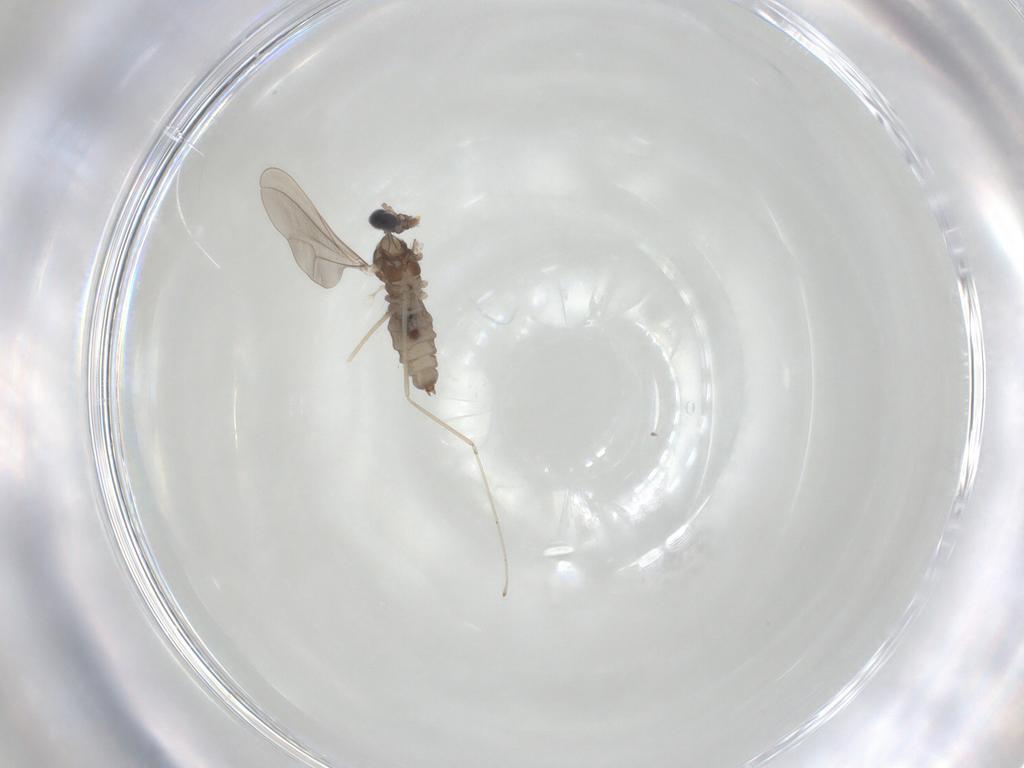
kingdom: Animalia
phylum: Arthropoda
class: Insecta
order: Diptera
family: Cecidomyiidae
